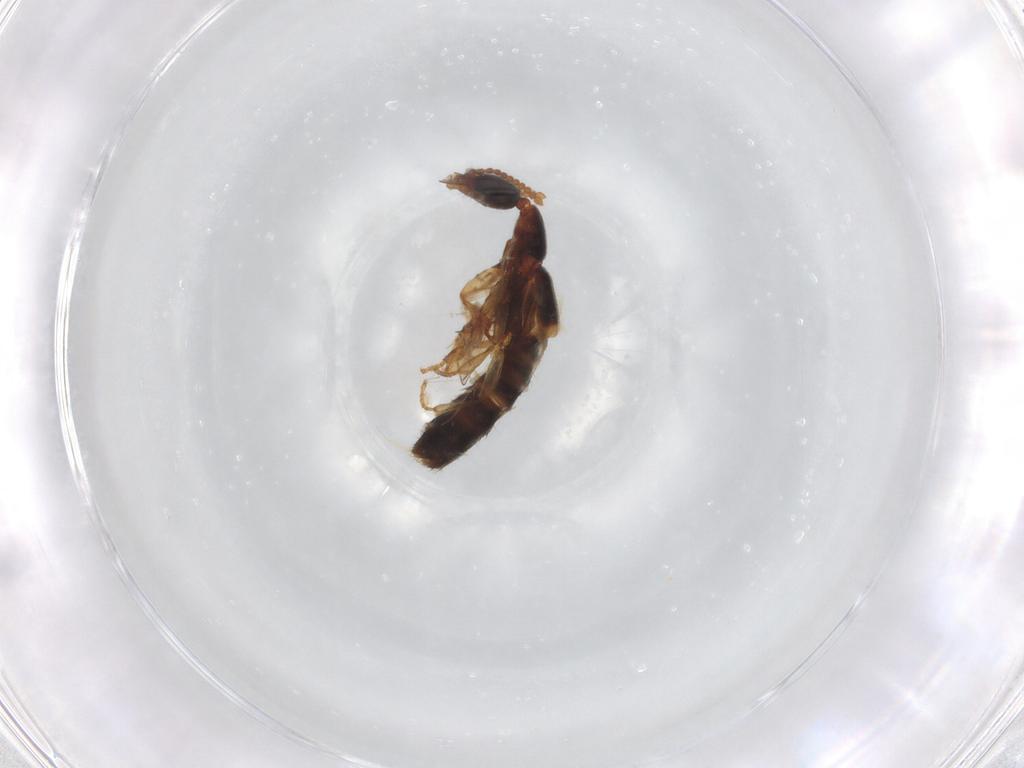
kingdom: Animalia
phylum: Arthropoda
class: Insecta
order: Coleoptera
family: Staphylinidae
